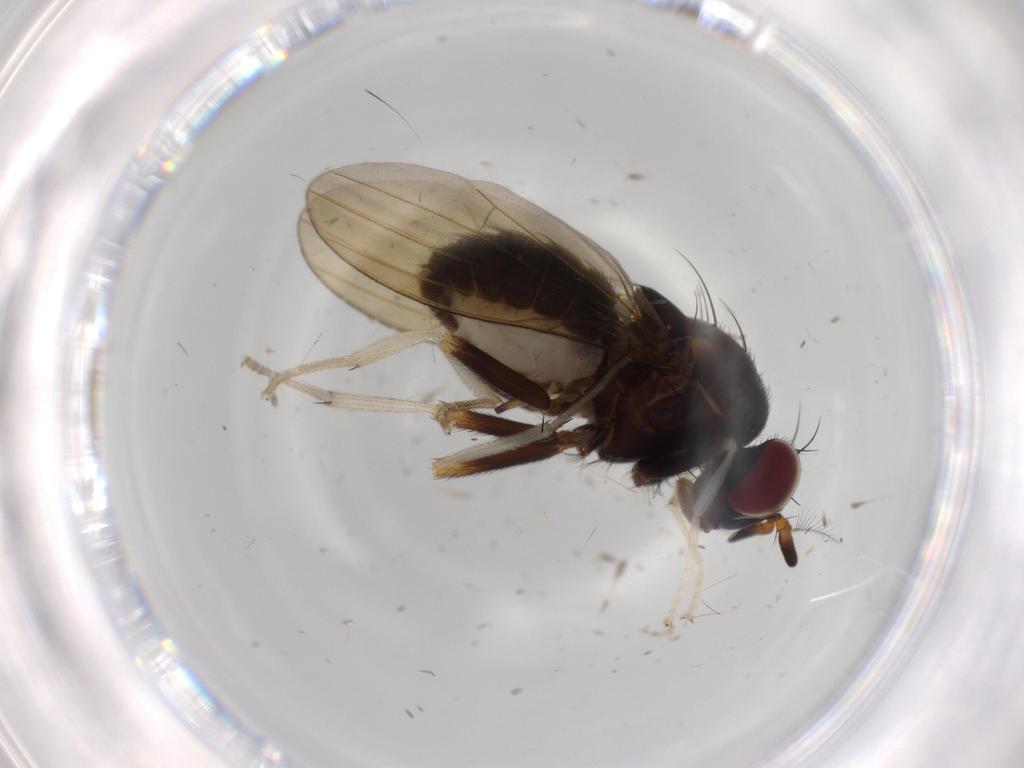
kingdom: Animalia
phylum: Arthropoda
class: Insecta
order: Diptera
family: Lauxaniidae
